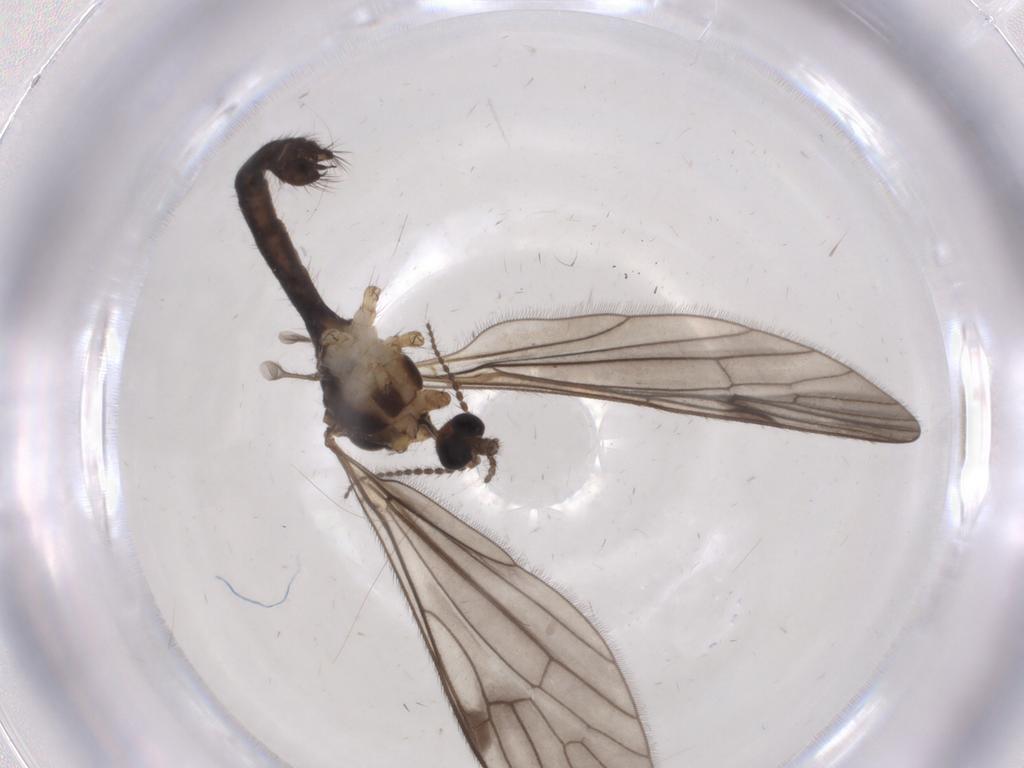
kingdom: Animalia
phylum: Arthropoda
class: Insecta
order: Diptera
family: Limoniidae
